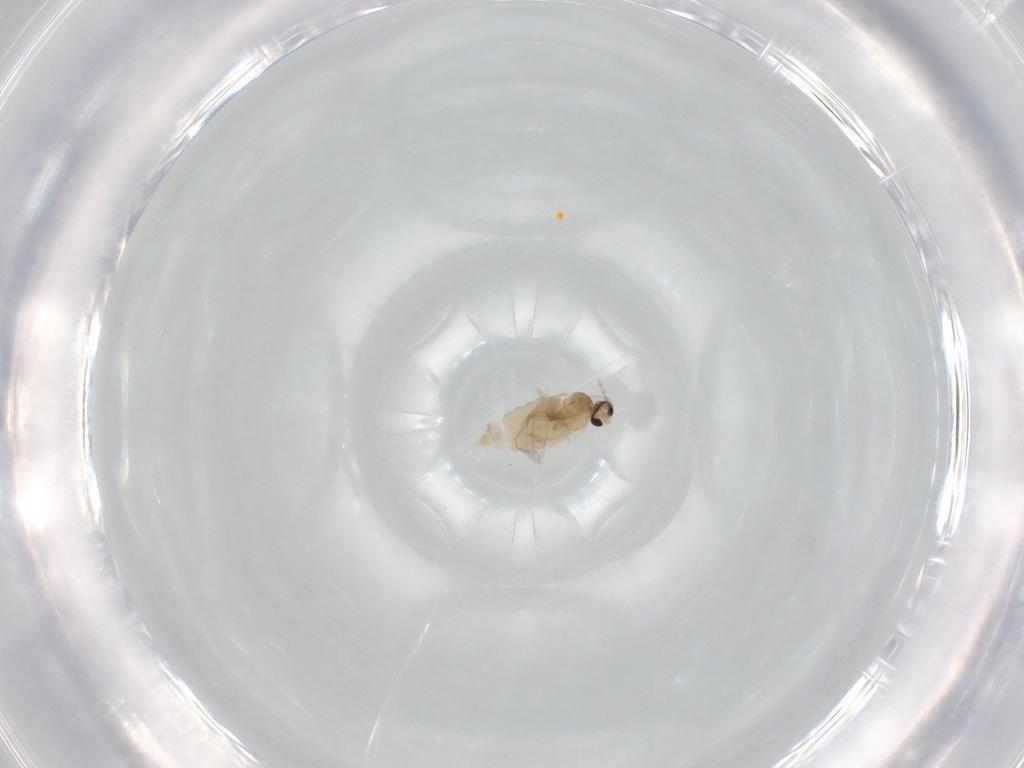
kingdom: Animalia
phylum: Arthropoda
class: Insecta
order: Diptera
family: Cecidomyiidae
